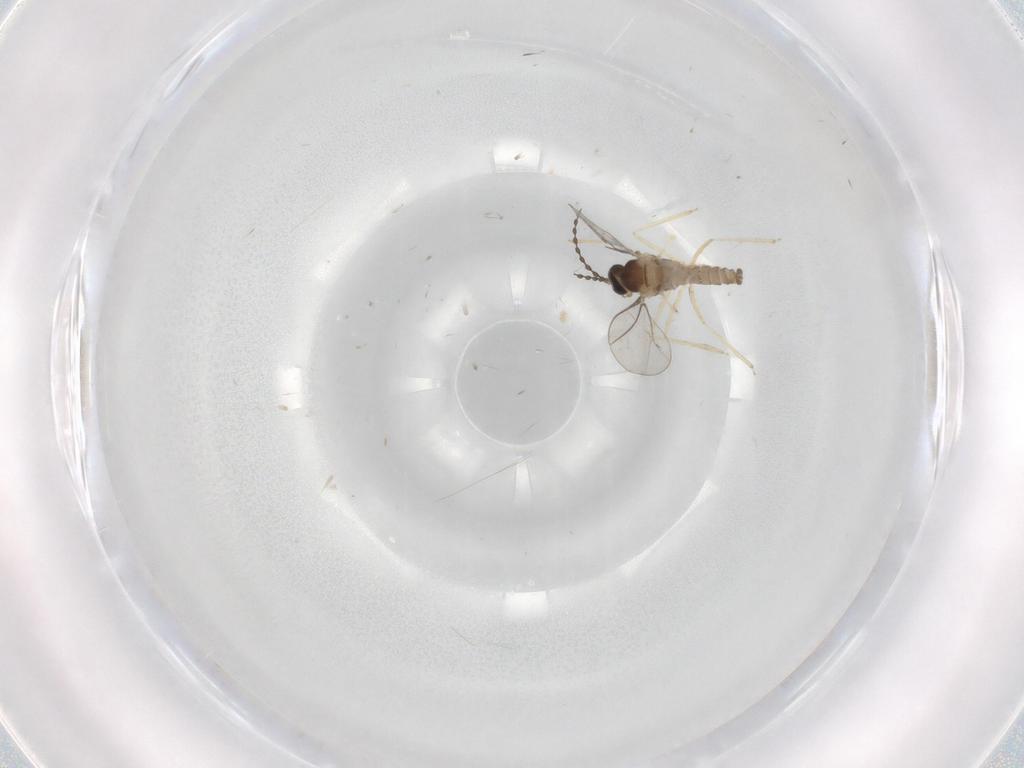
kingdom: Animalia
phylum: Arthropoda
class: Insecta
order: Diptera
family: Cecidomyiidae
